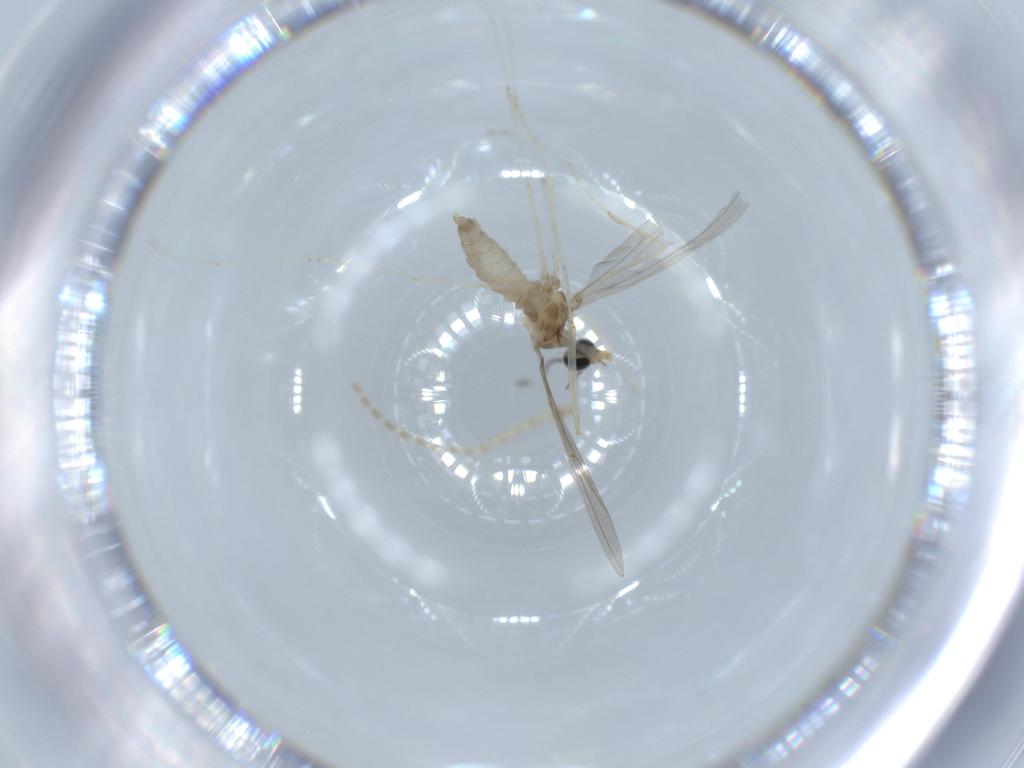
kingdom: Animalia
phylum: Arthropoda
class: Insecta
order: Diptera
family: Cecidomyiidae
